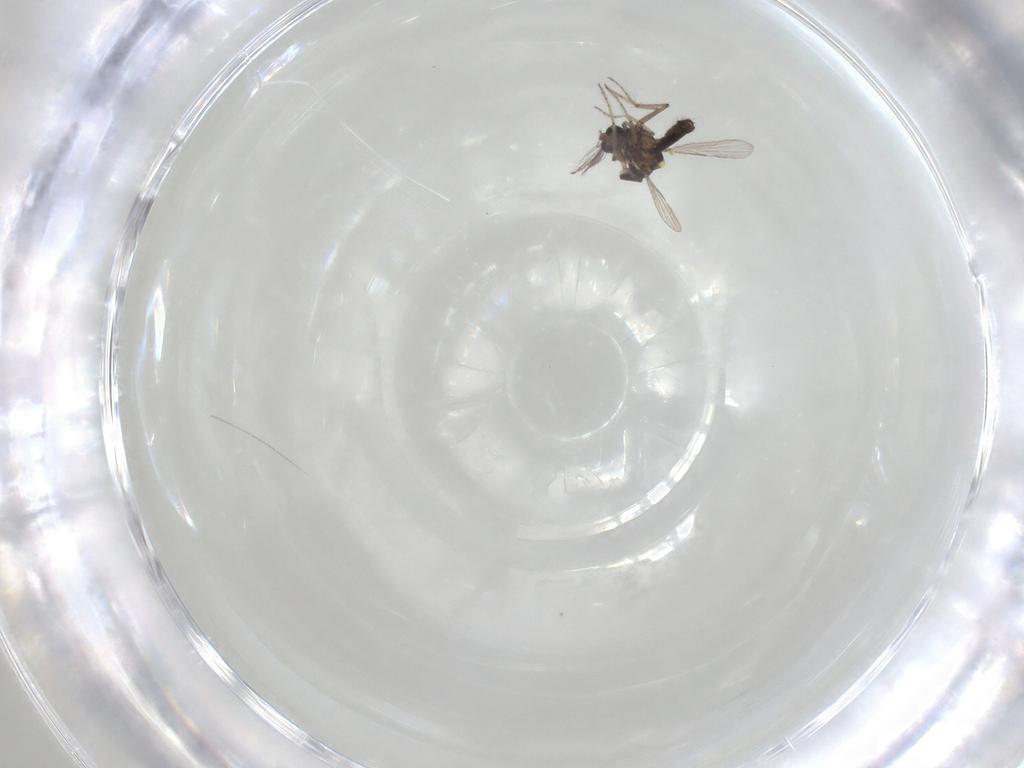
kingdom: Animalia
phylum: Arthropoda
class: Insecta
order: Diptera
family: Ceratopogonidae
